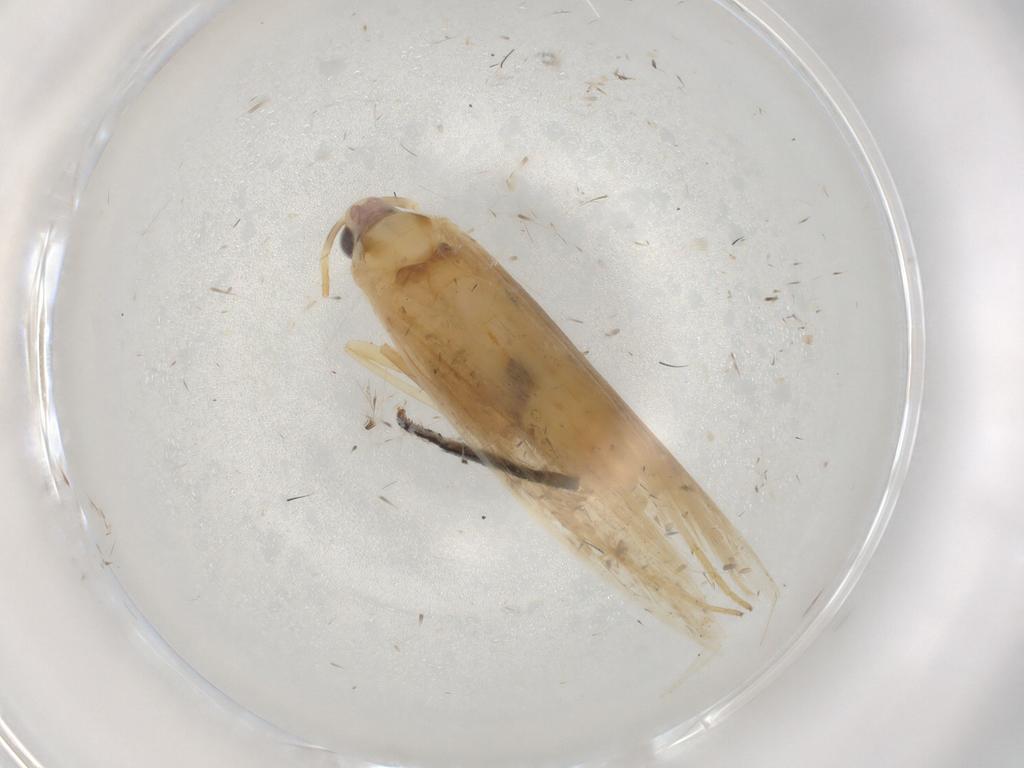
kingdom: Animalia
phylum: Arthropoda
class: Insecta
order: Lepidoptera
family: Xyloryctidae
